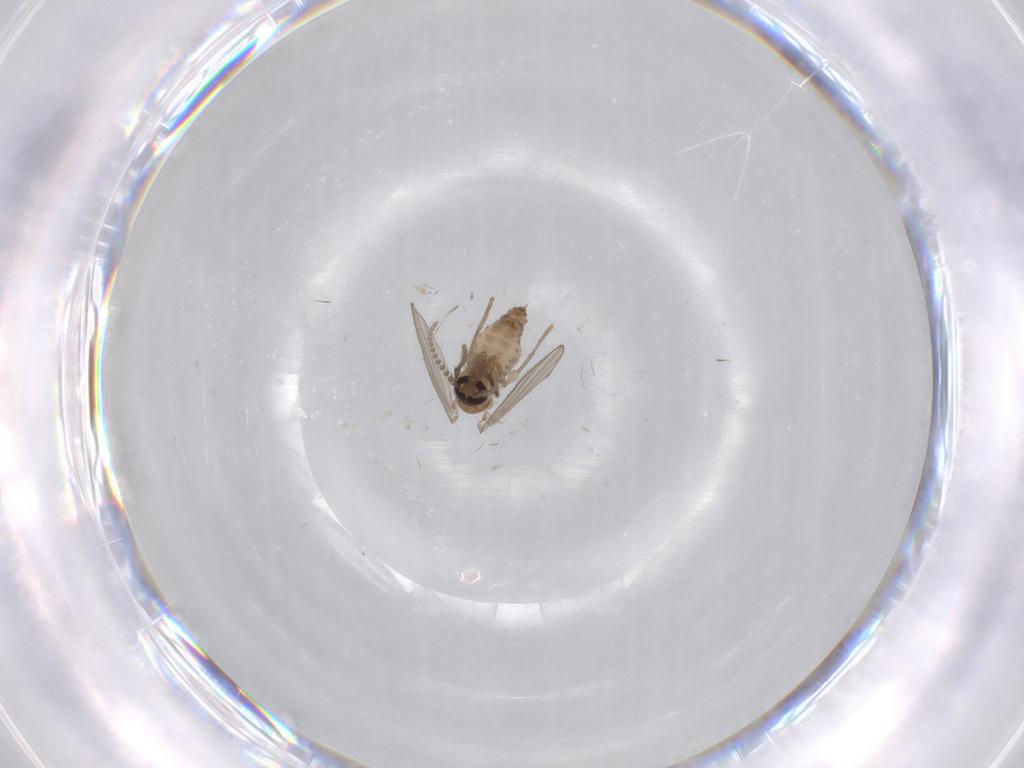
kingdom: Animalia
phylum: Arthropoda
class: Insecta
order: Diptera
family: Psychodidae
